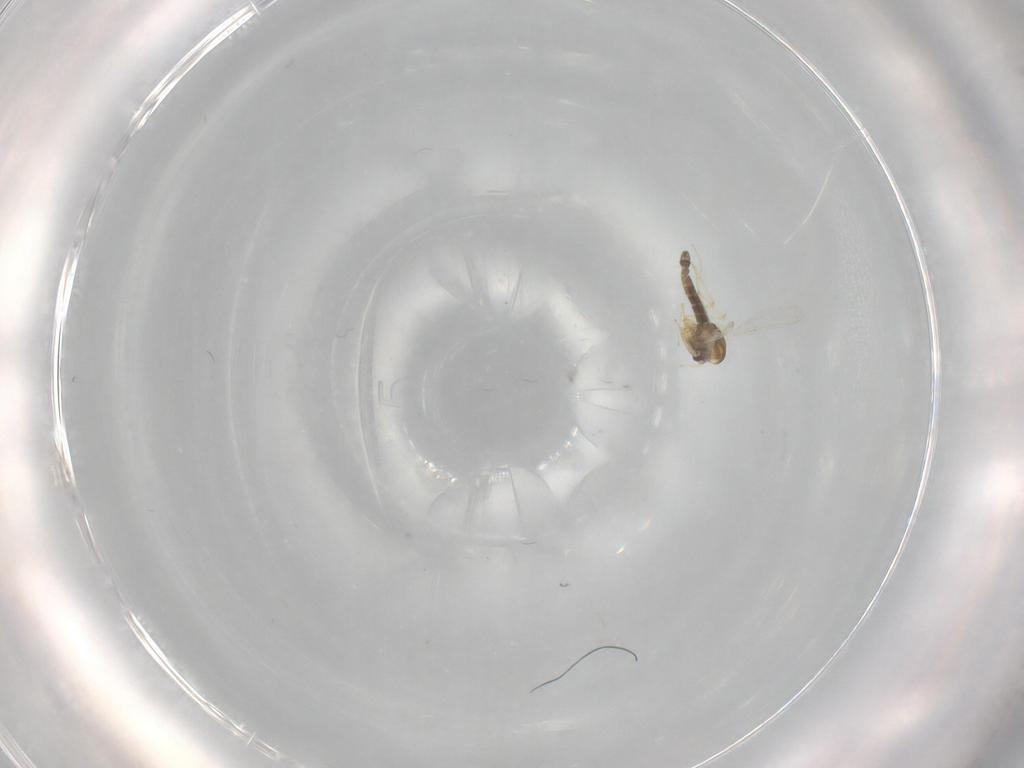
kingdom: Animalia
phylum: Arthropoda
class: Insecta
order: Diptera
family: Chironomidae
